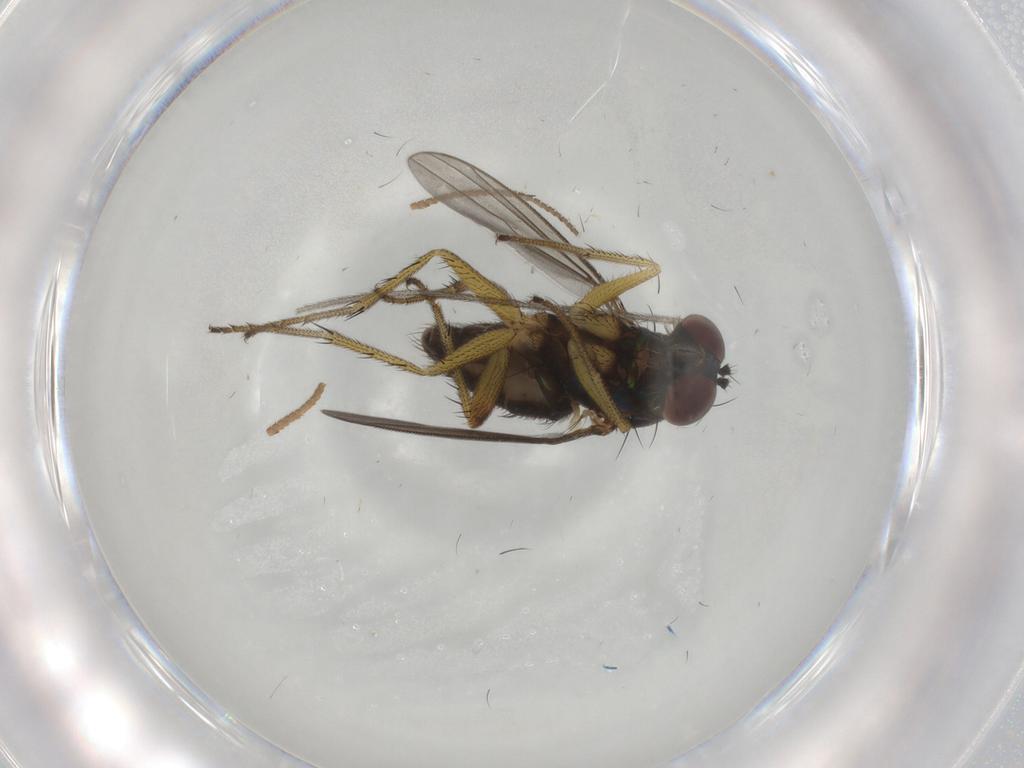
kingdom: Animalia
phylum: Arthropoda
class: Insecta
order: Diptera
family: Dolichopodidae
